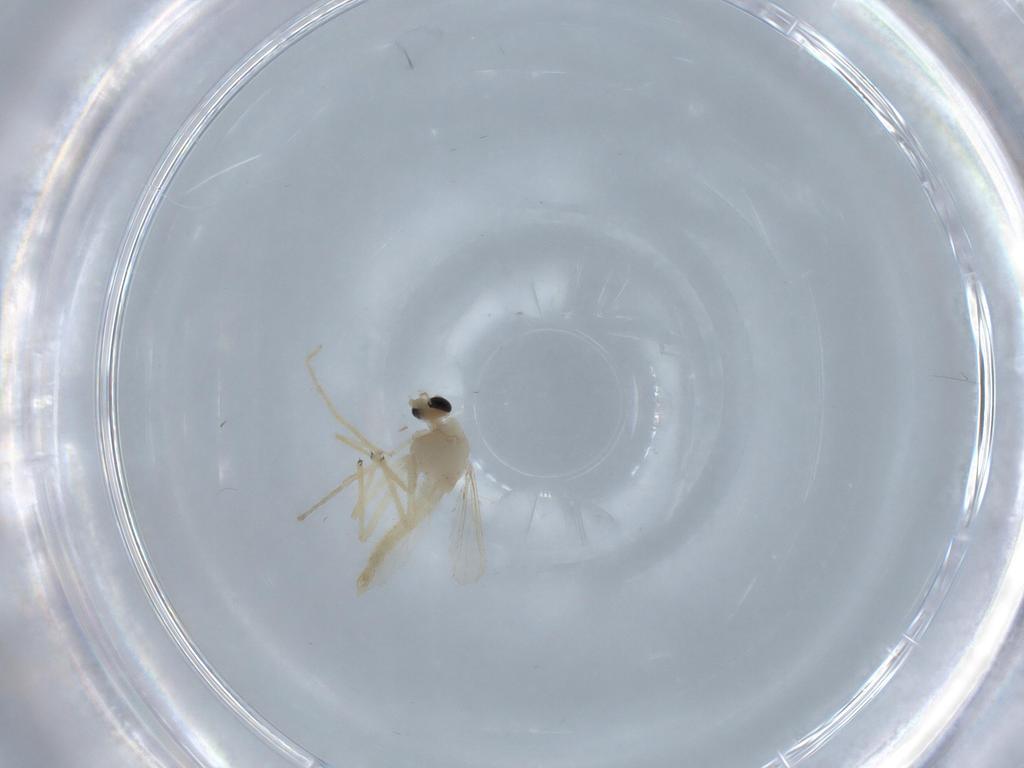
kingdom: Animalia
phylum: Arthropoda
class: Insecta
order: Diptera
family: Chironomidae
